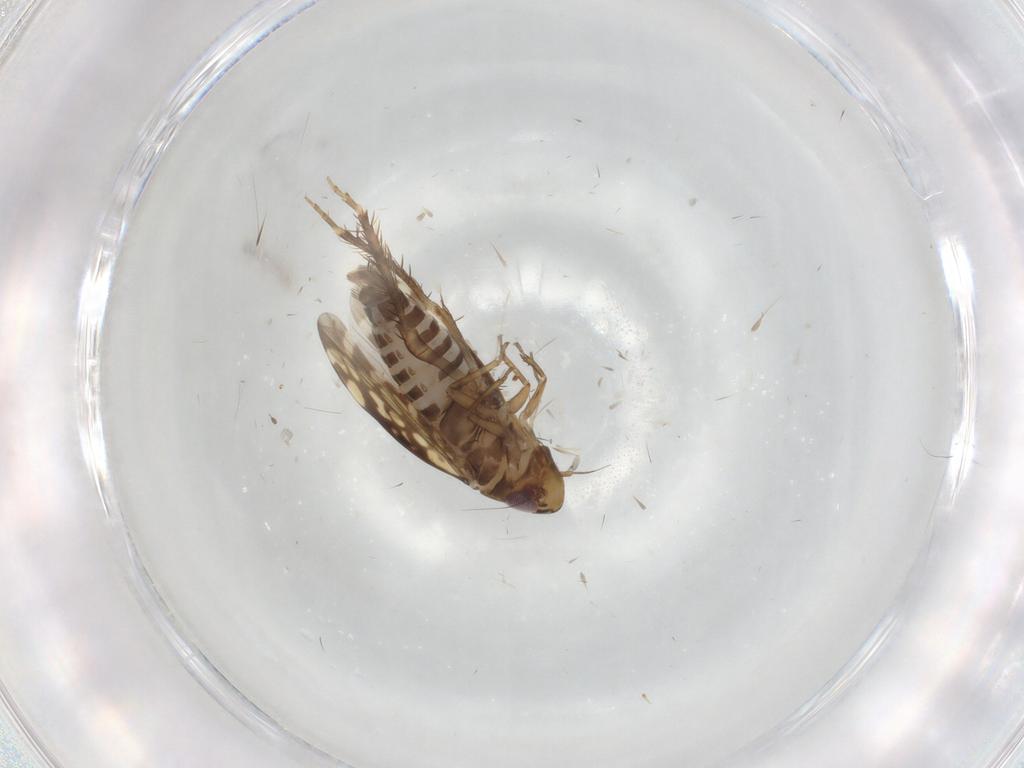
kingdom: Animalia
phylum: Arthropoda
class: Insecta
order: Hemiptera
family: Cicadellidae
